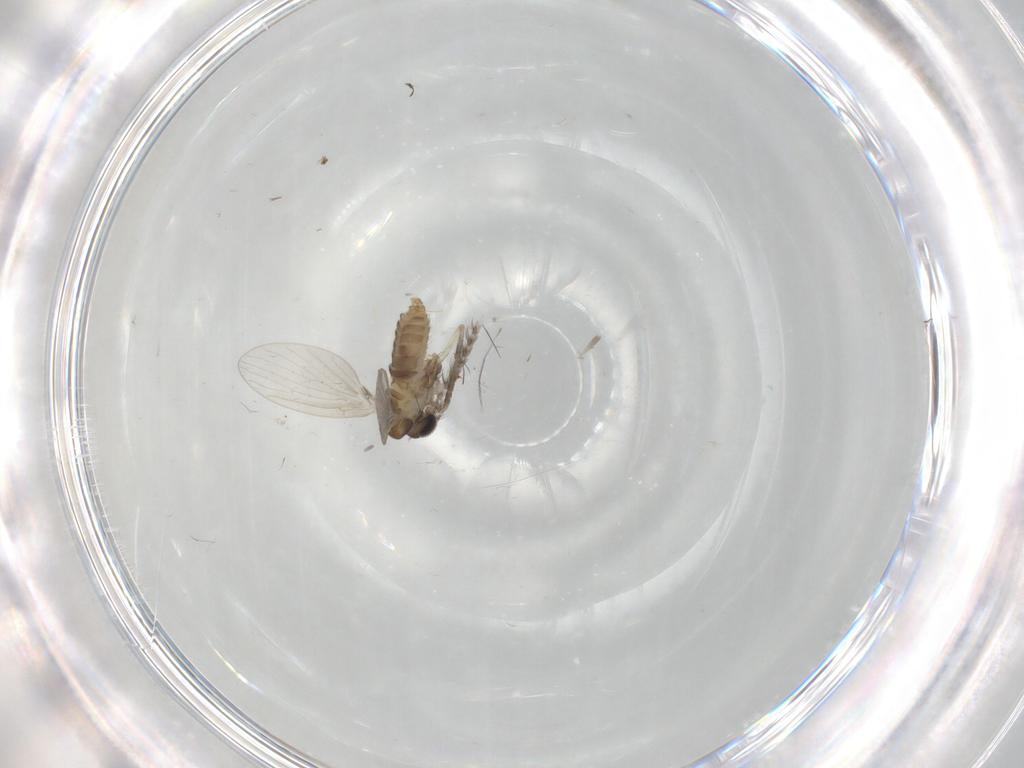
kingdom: Animalia
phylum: Arthropoda
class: Insecta
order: Diptera
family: Psychodidae
